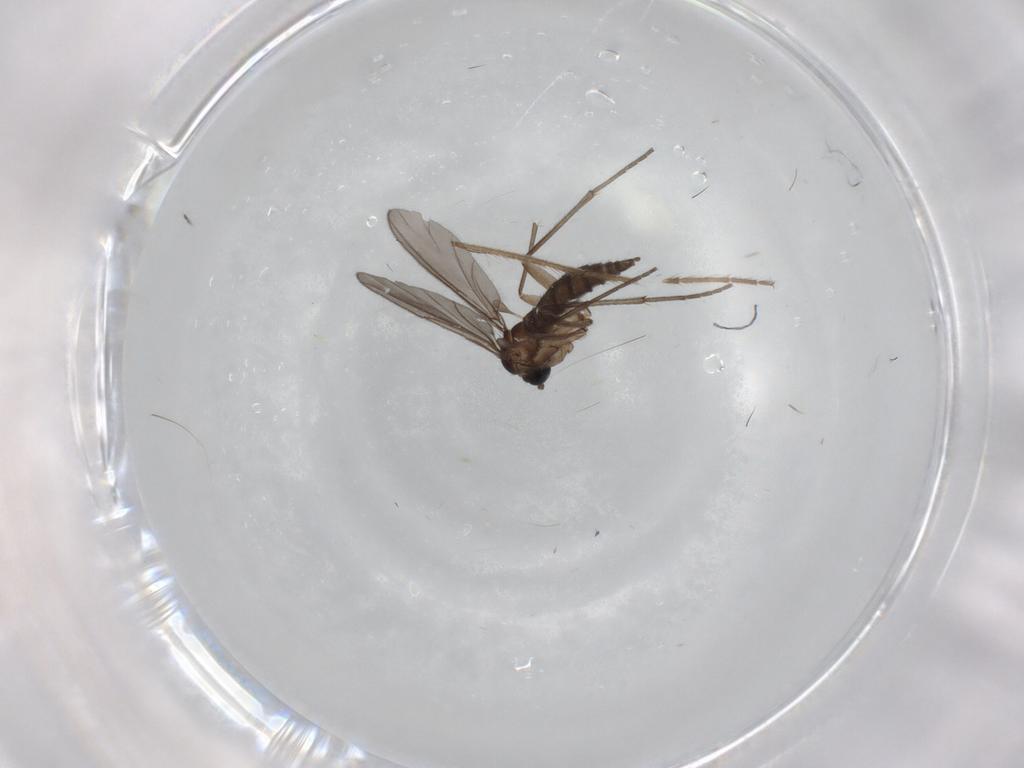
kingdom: Animalia
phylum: Arthropoda
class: Insecta
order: Diptera
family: Sciaridae
